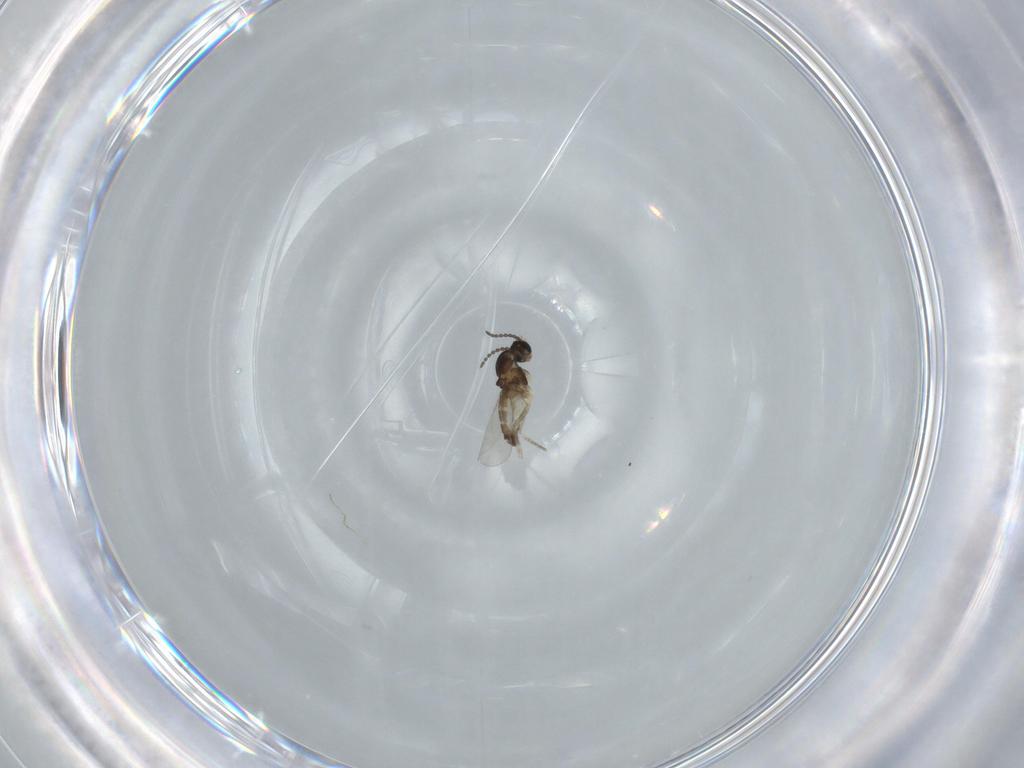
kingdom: Animalia
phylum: Arthropoda
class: Insecta
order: Diptera
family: Cecidomyiidae
